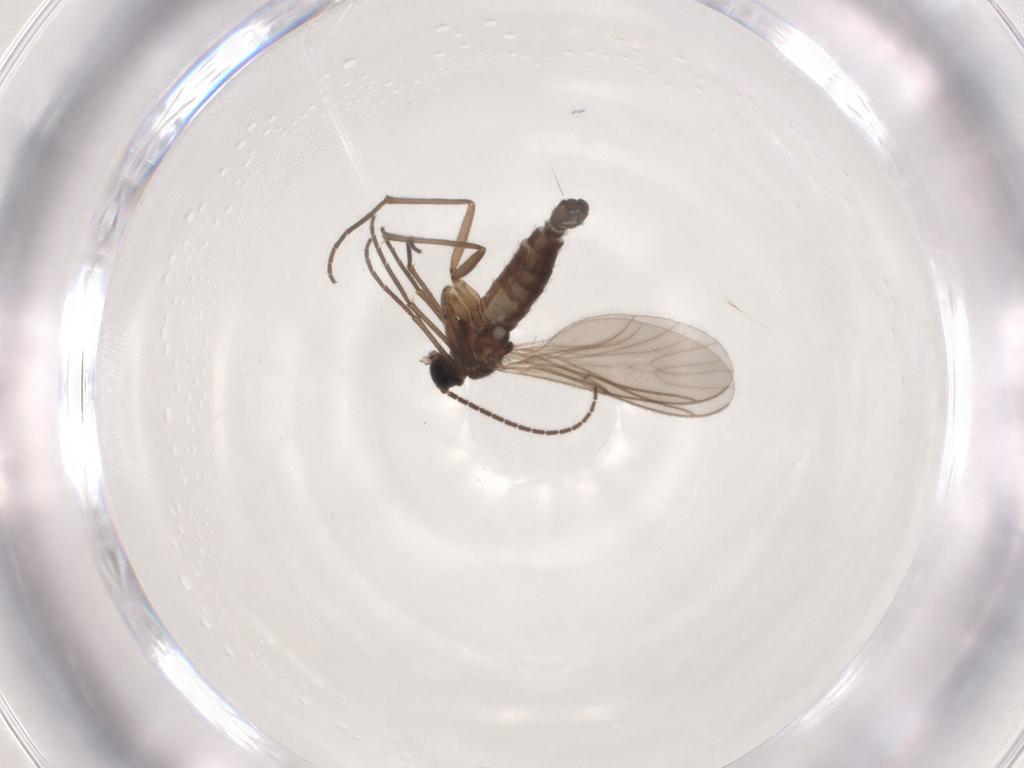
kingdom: Animalia
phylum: Arthropoda
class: Insecta
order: Diptera
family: Sciaridae
